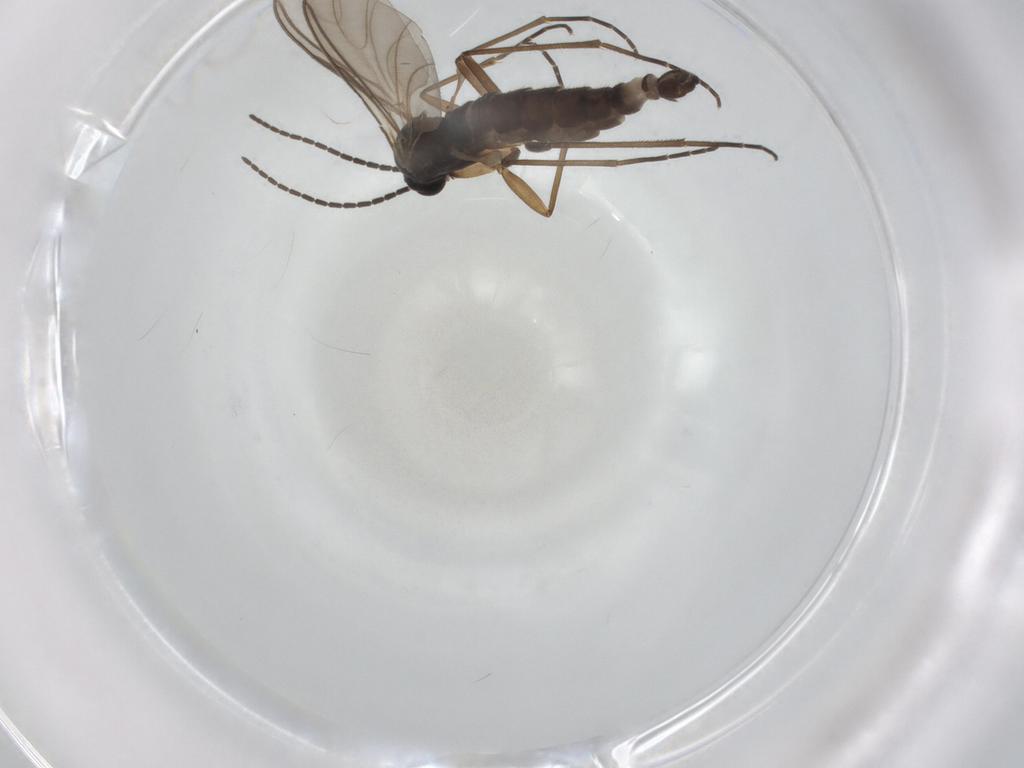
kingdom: Animalia
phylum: Arthropoda
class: Insecta
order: Diptera
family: Sciaridae
